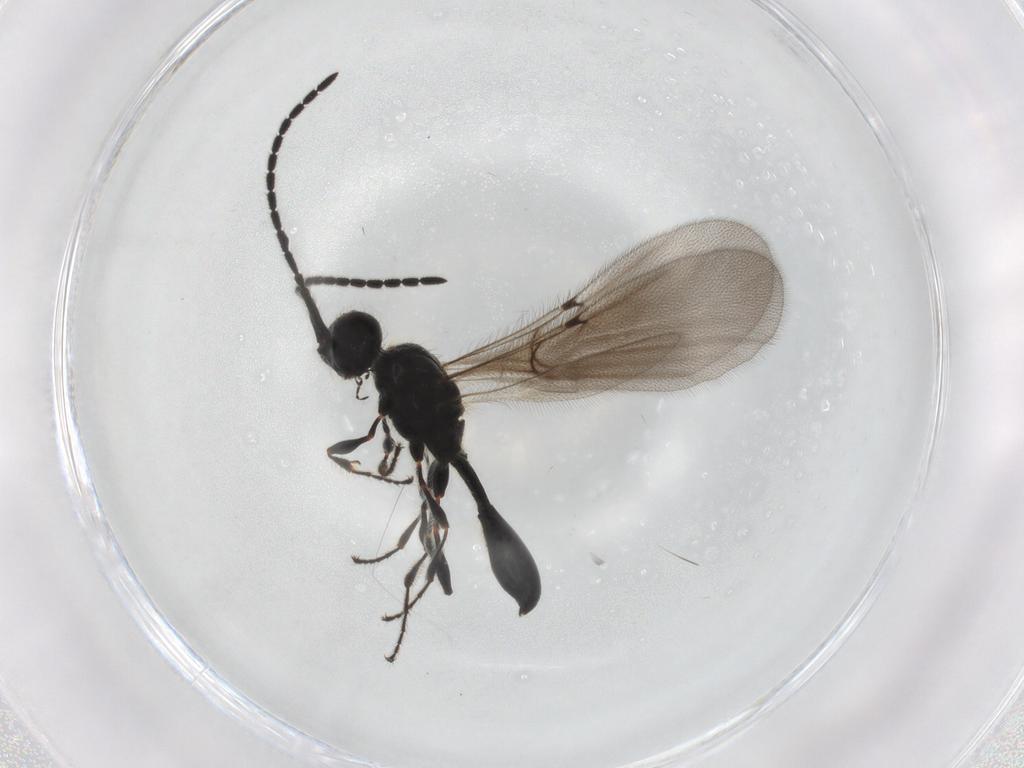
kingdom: Animalia
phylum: Arthropoda
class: Insecta
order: Hymenoptera
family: Diapriidae
